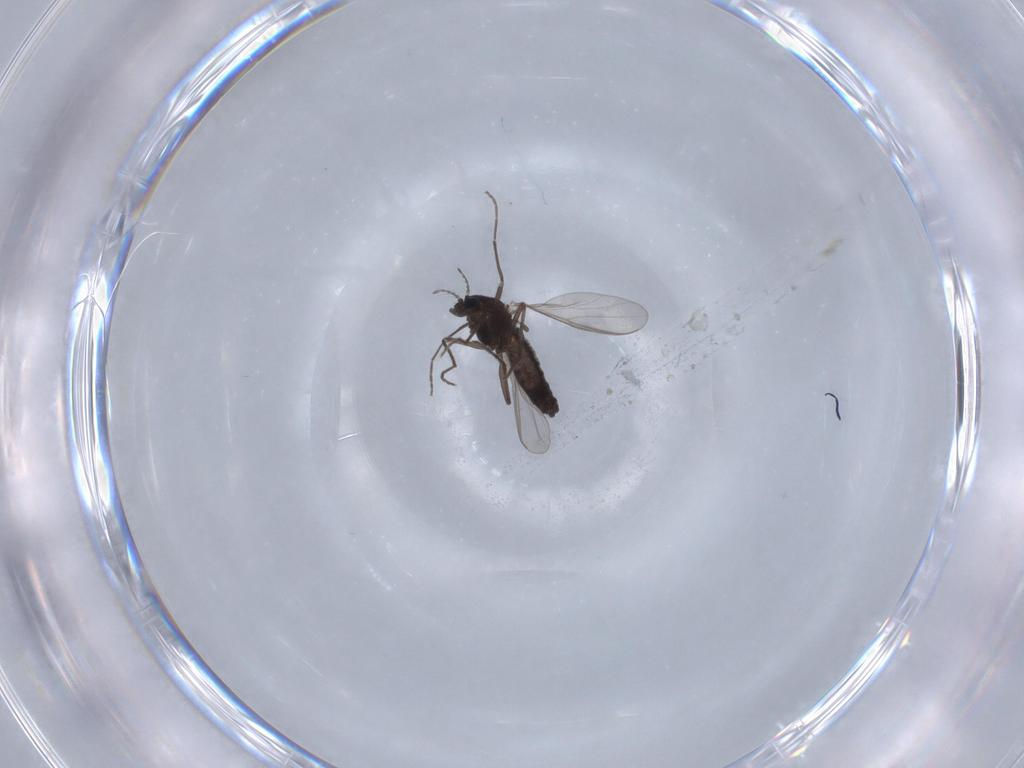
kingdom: Animalia
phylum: Arthropoda
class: Insecta
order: Diptera
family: Chironomidae
